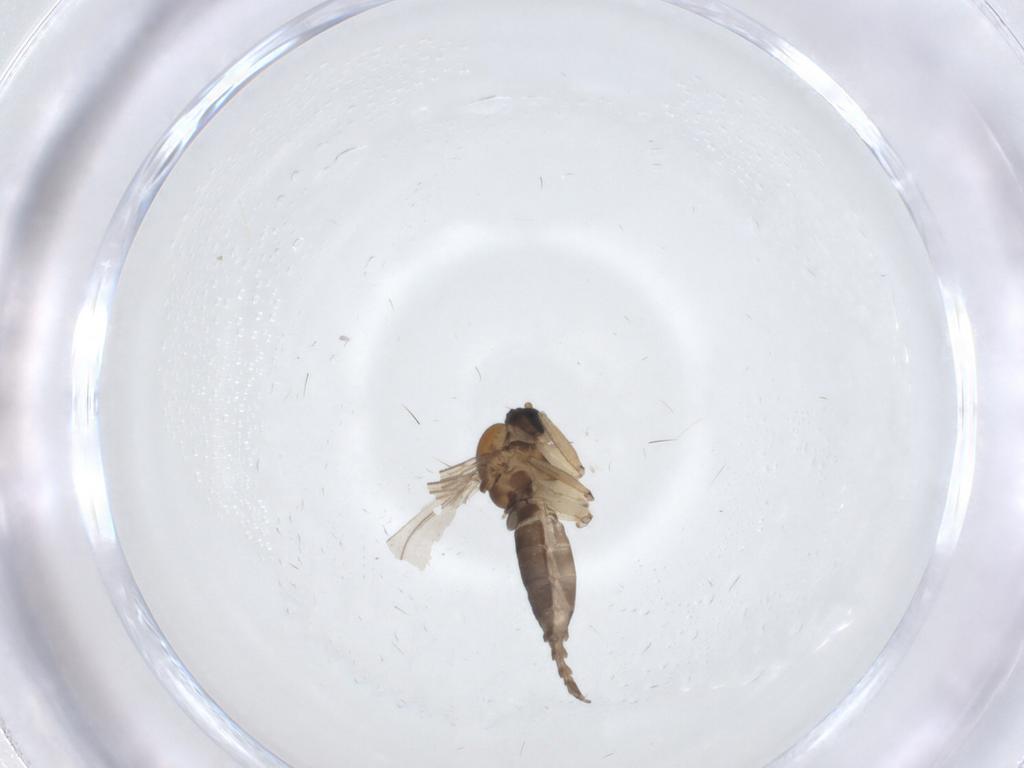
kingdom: Animalia
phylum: Arthropoda
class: Insecta
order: Diptera
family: Sciaridae
